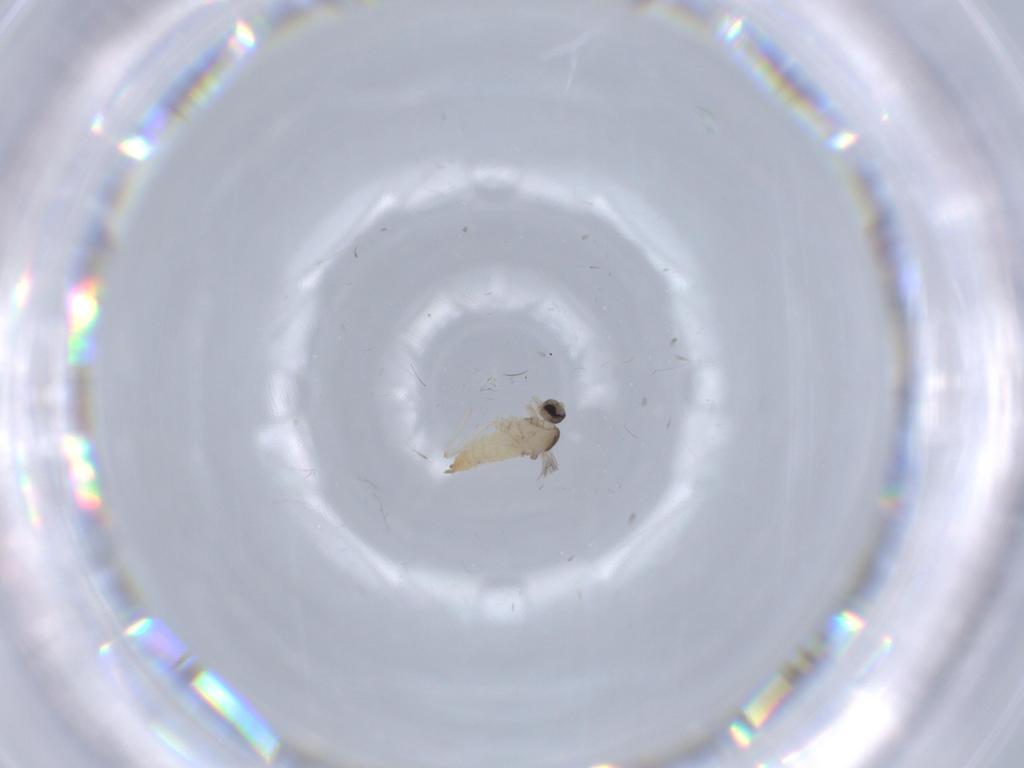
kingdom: Animalia
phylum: Arthropoda
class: Insecta
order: Diptera
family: Cecidomyiidae
